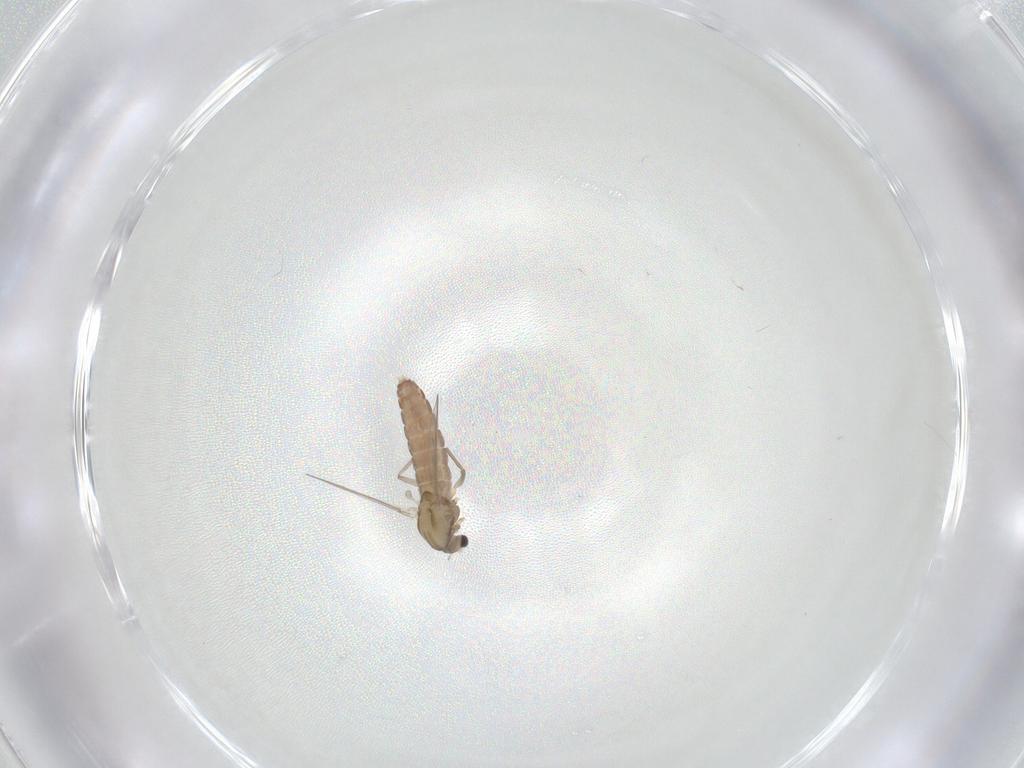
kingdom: Animalia
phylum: Arthropoda
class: Insecta
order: Diptera
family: Chironomidae
